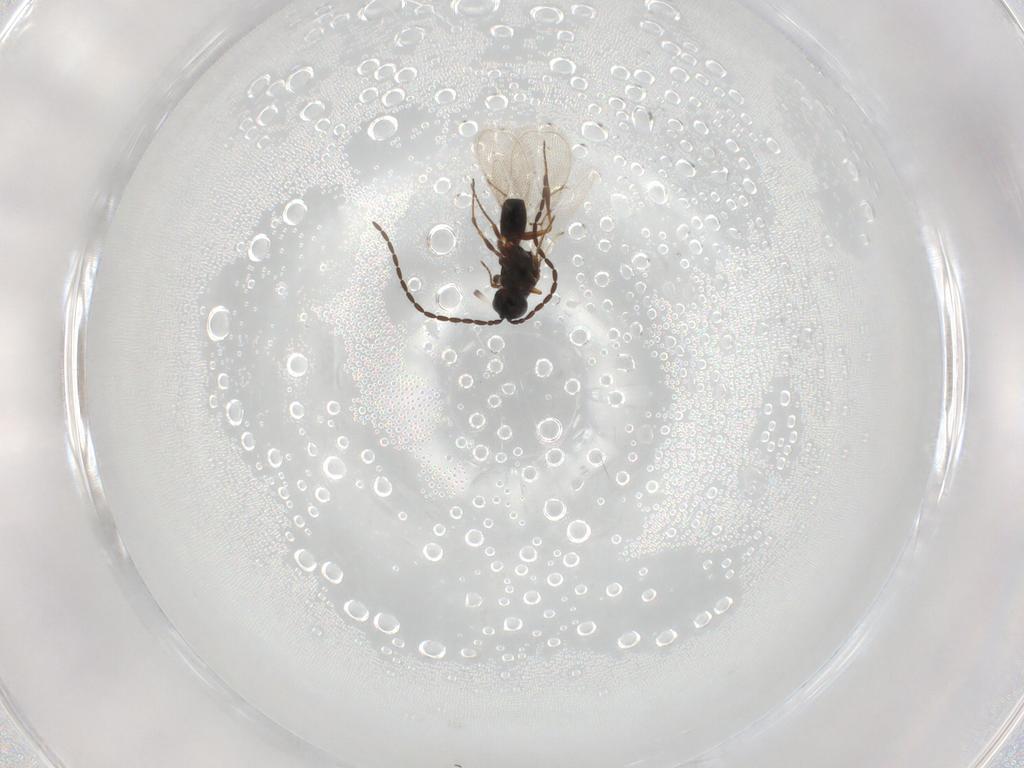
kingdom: Animalia
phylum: Arthropoda
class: Insecta
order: Hymenoptera
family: Figitidae
